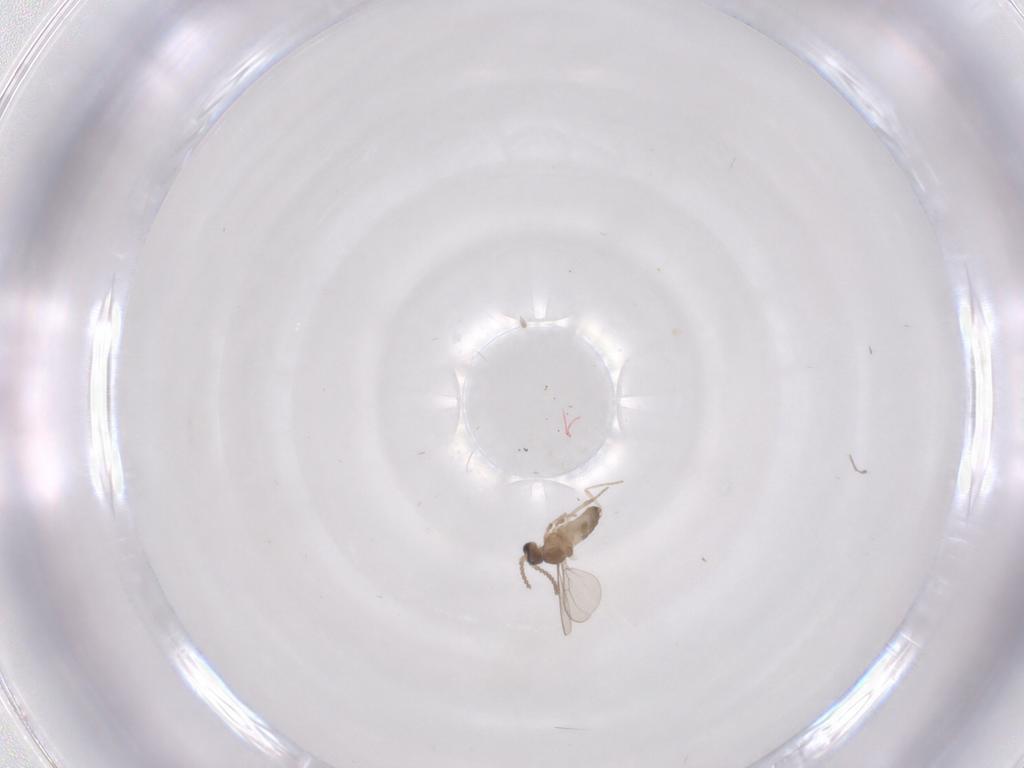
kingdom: Animalia
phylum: Arthropoda
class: Insecta
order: Diptera
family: Cecidomyiidae
